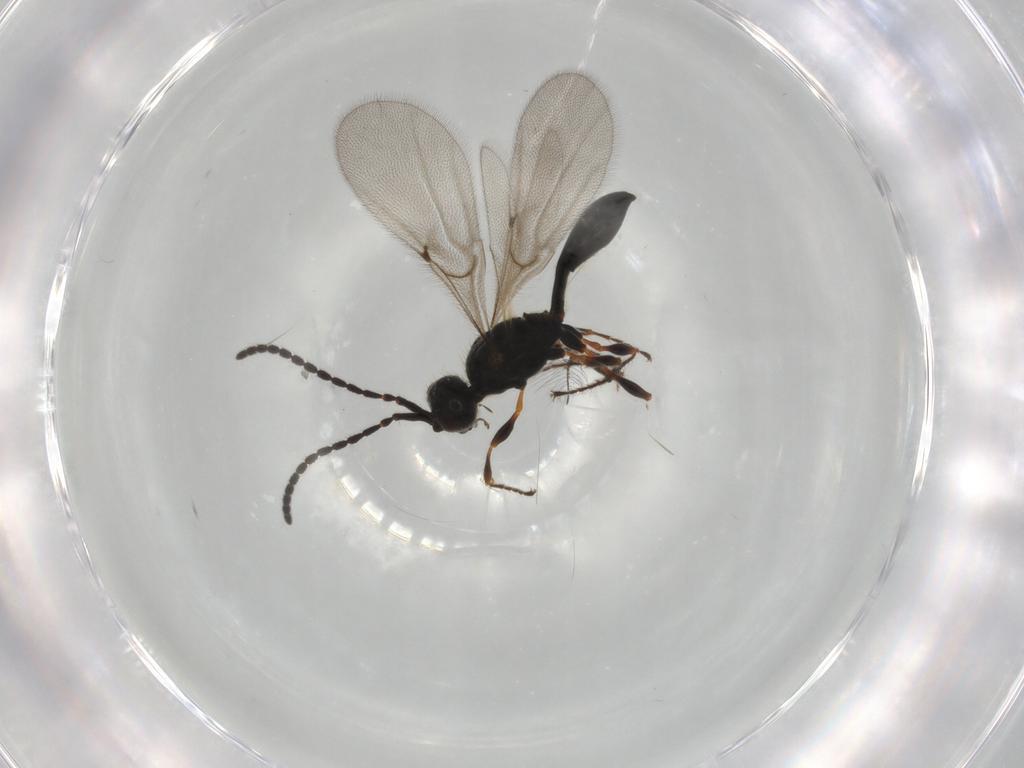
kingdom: Animalia
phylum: Arthropoda
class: Insecta
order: Hymenoptera
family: Diapriidae
